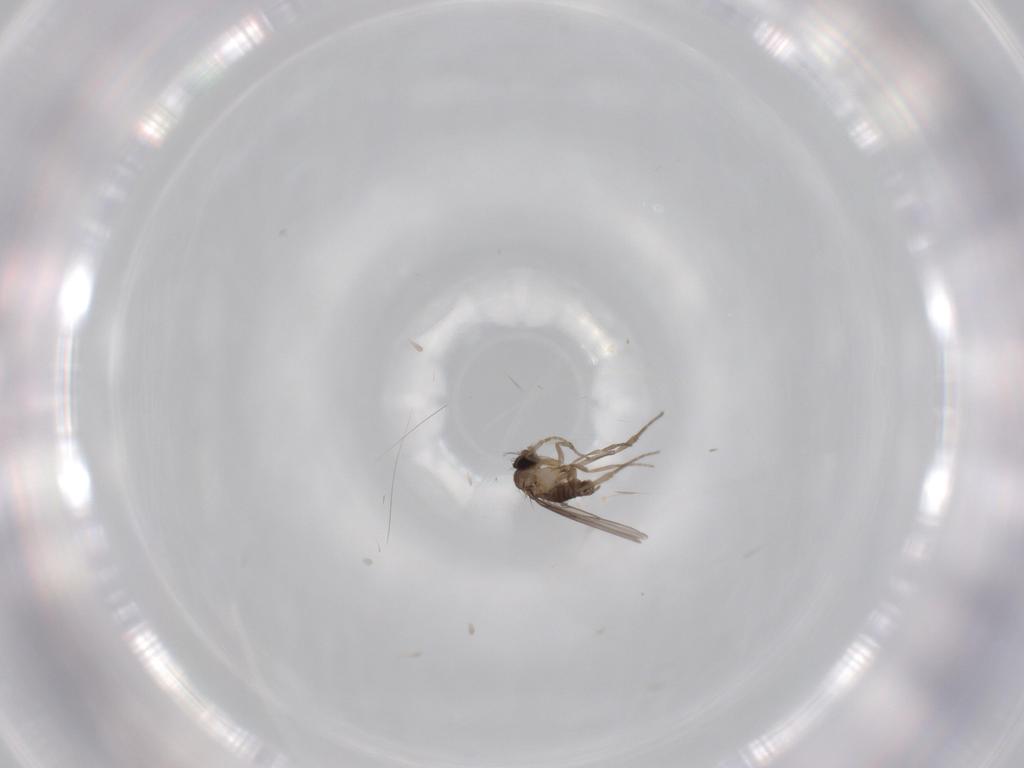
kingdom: Animalia
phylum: Arthropoda
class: Insecta
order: Diptera
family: Phoridae
